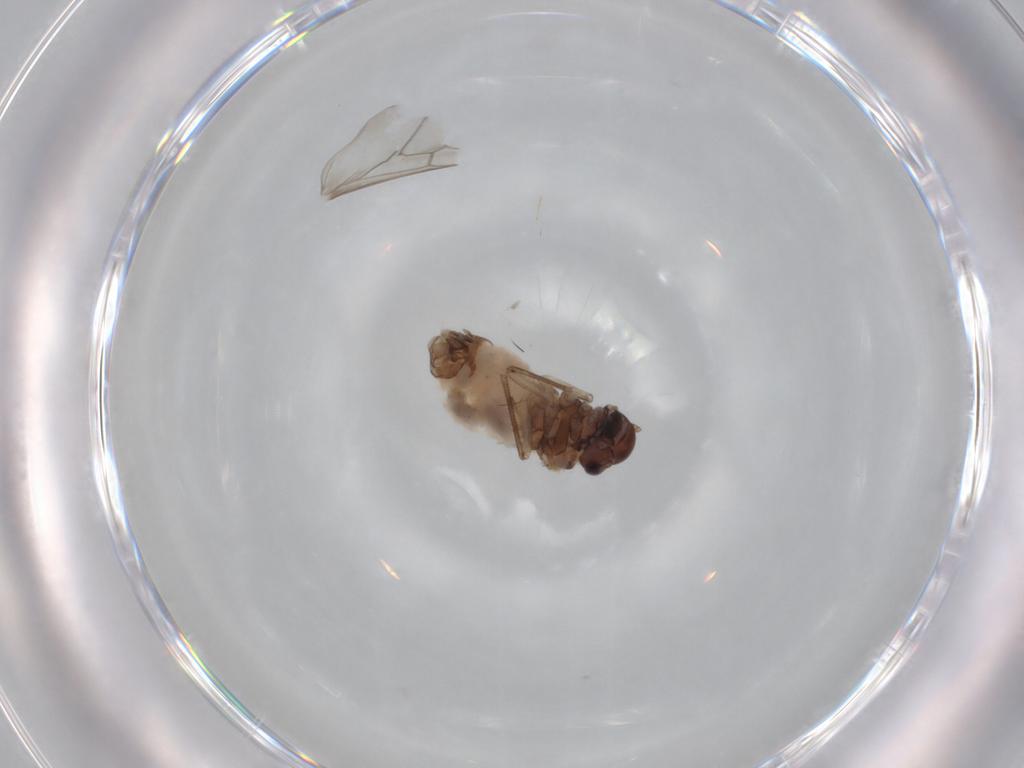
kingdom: Animalia
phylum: Arthropoda
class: Insecta
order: Psocodea
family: Peripsocidae
